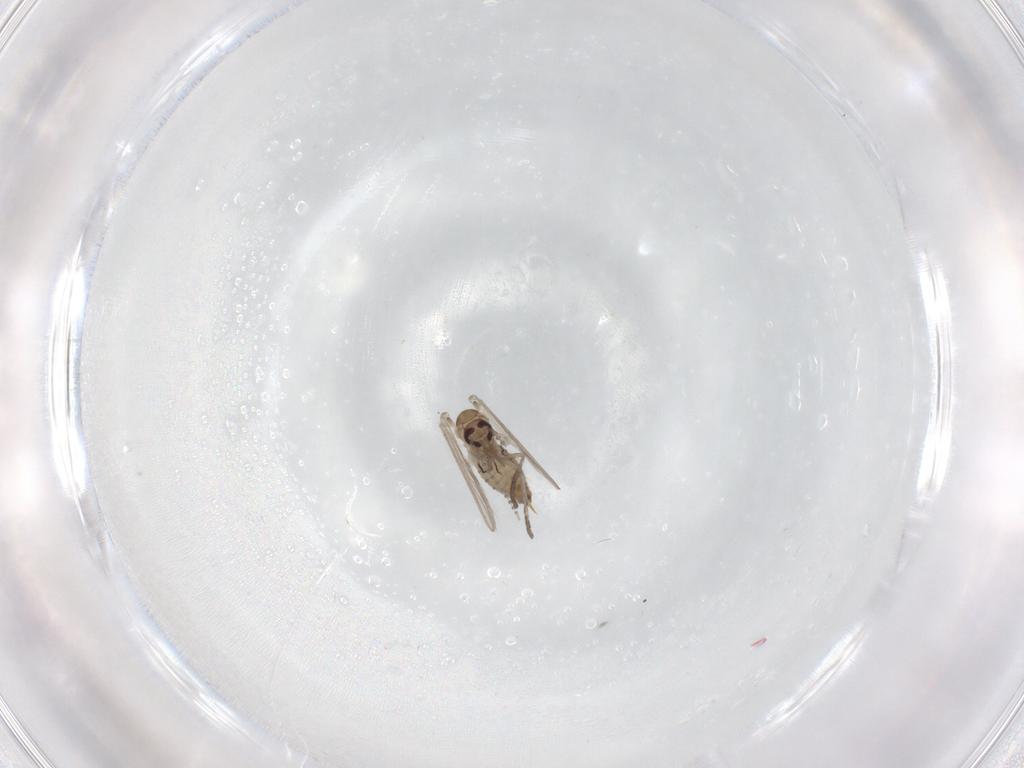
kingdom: Animalia
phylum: Arthropoda
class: Insecta
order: Diptera
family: Psychodidae
